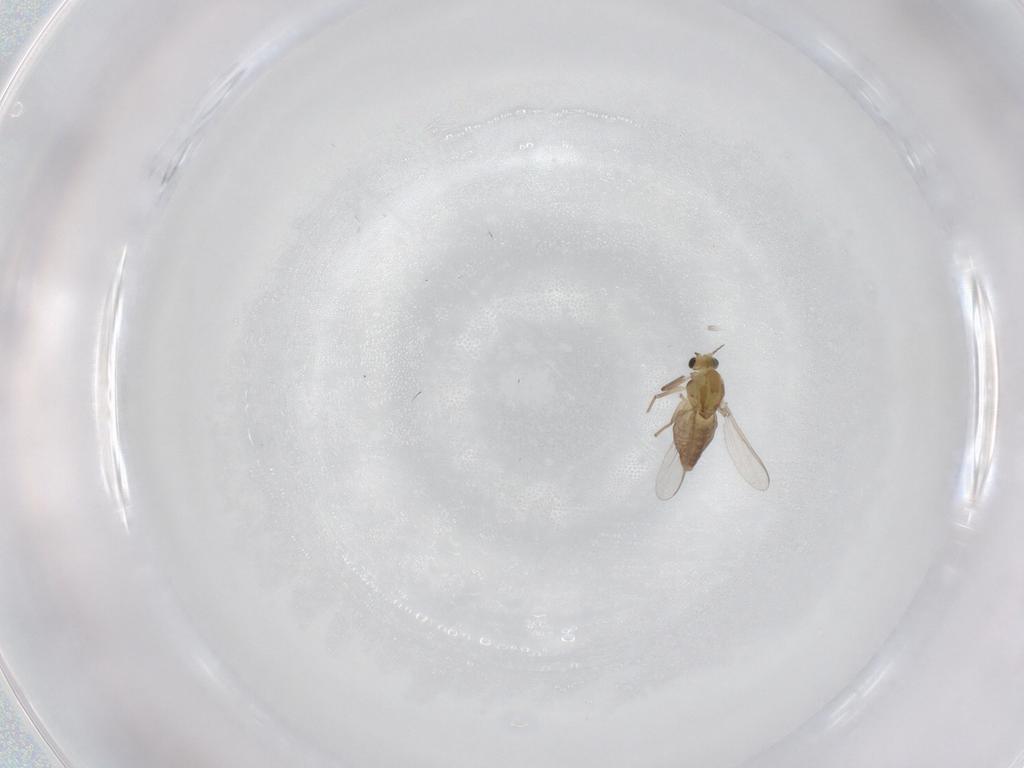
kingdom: Animalia
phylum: Arthropoda
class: Insecta
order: Diptera
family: Chironomidae
